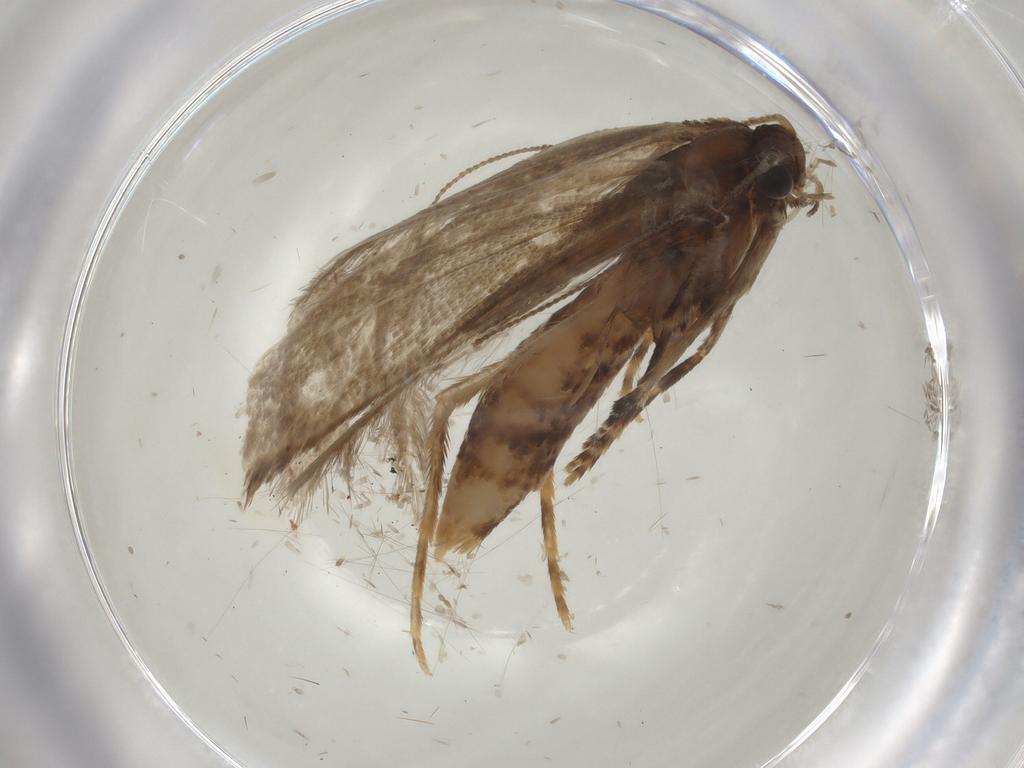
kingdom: Animalia
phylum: Arthropoda
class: Insecta
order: Lepidoptera
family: Tineidae
